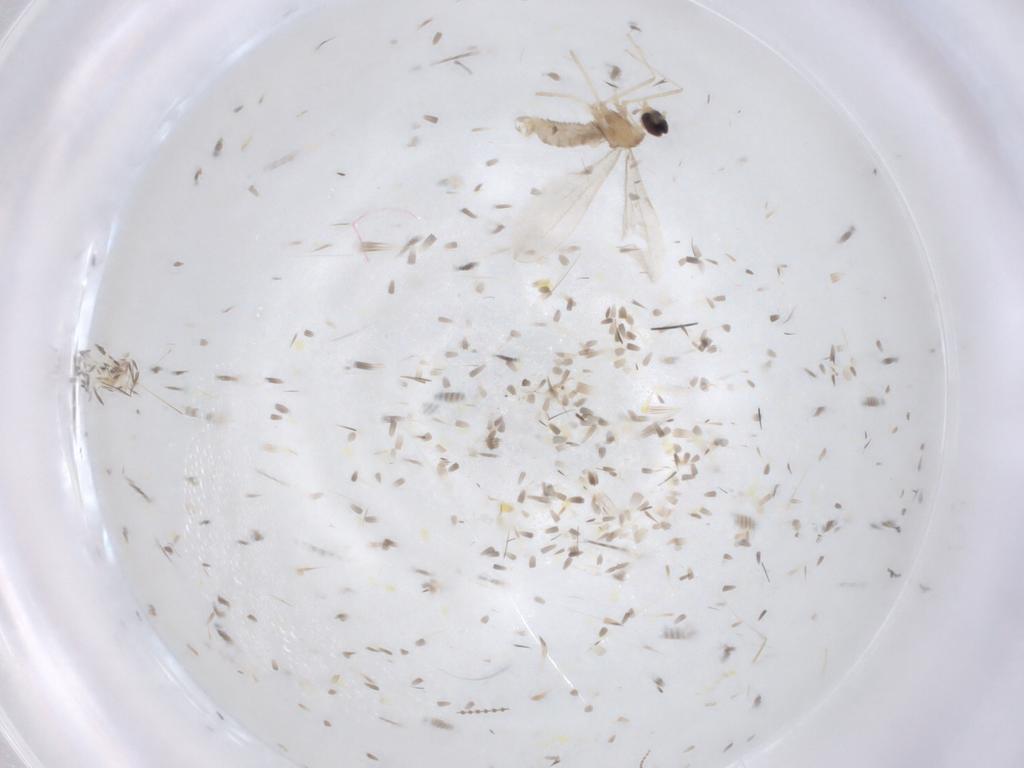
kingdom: Animalia
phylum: Arthropoda
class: Insecta
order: Diptera
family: Cecidomyiidae
